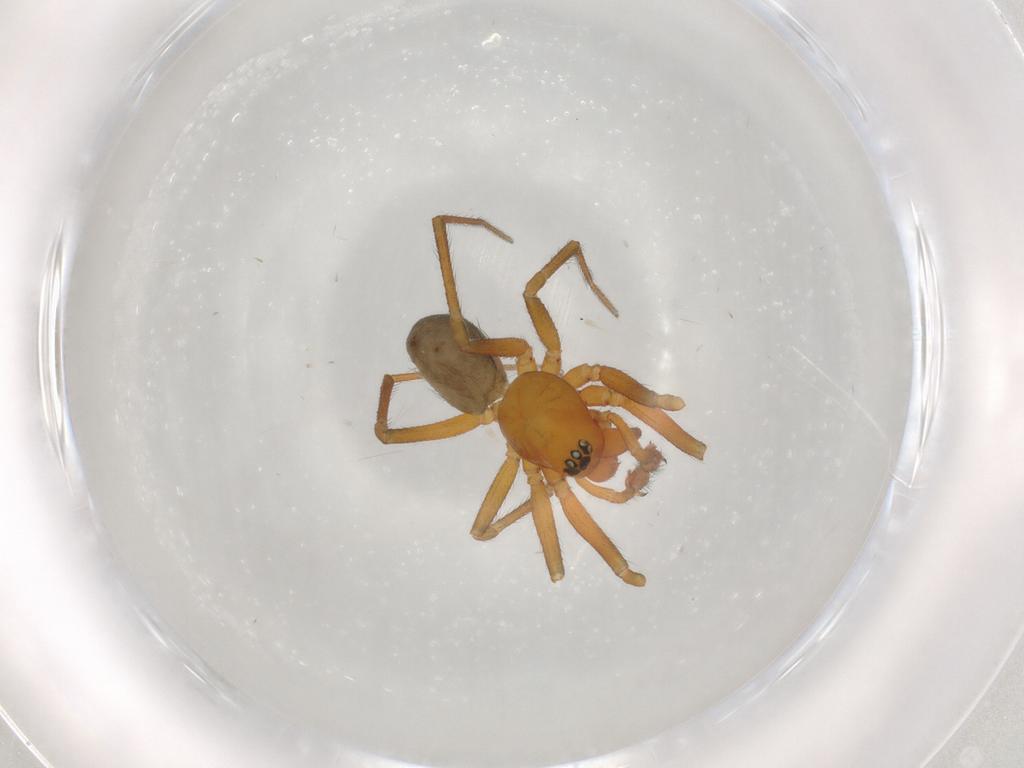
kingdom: Animalia
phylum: Arthropoda
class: Arachnida
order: Araneae
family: Linyphiidae
